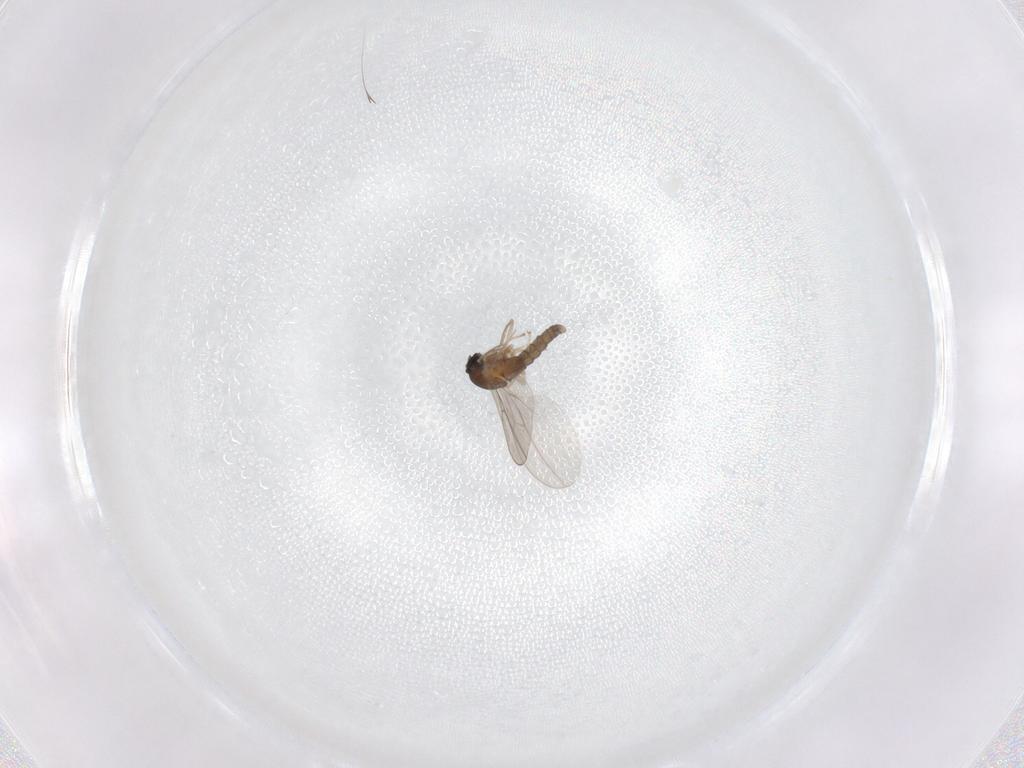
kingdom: Animalia
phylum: Arthropoda
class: Insecta
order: Diptera
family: Cecidomyiidae
